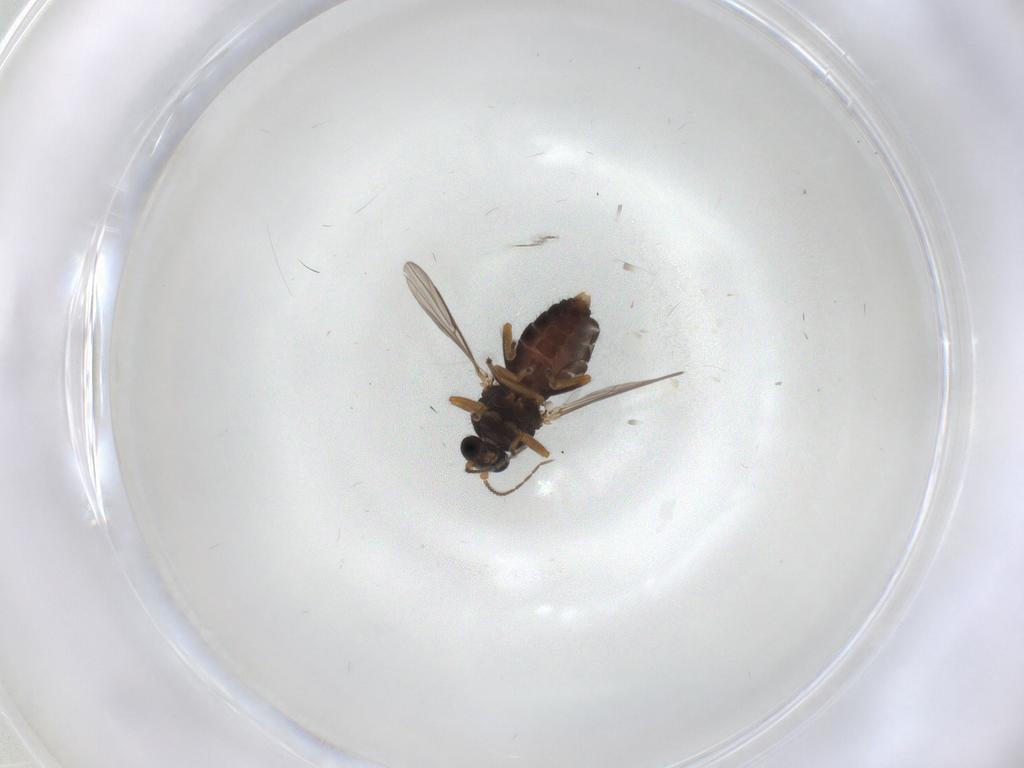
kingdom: Animalia
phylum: Arthropoda
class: Insecta
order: Diptera
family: Ceratopogonidae
